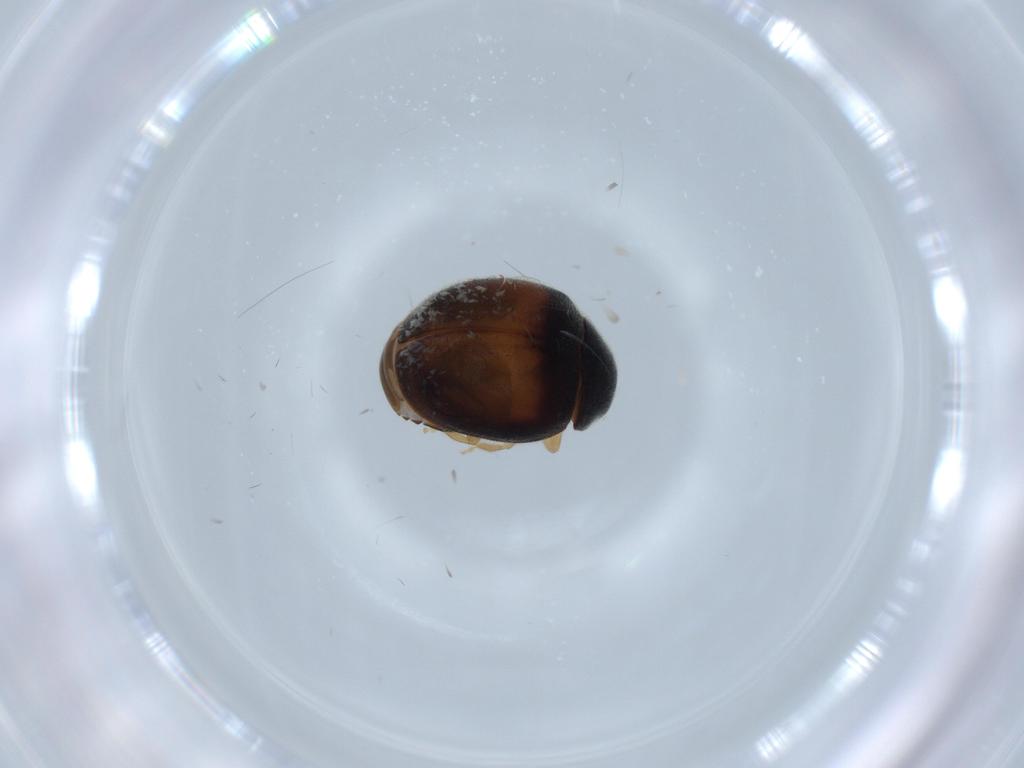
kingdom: Animalia
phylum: Arthropoda
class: Insecta
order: Coleoptera
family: Coccinellidae
